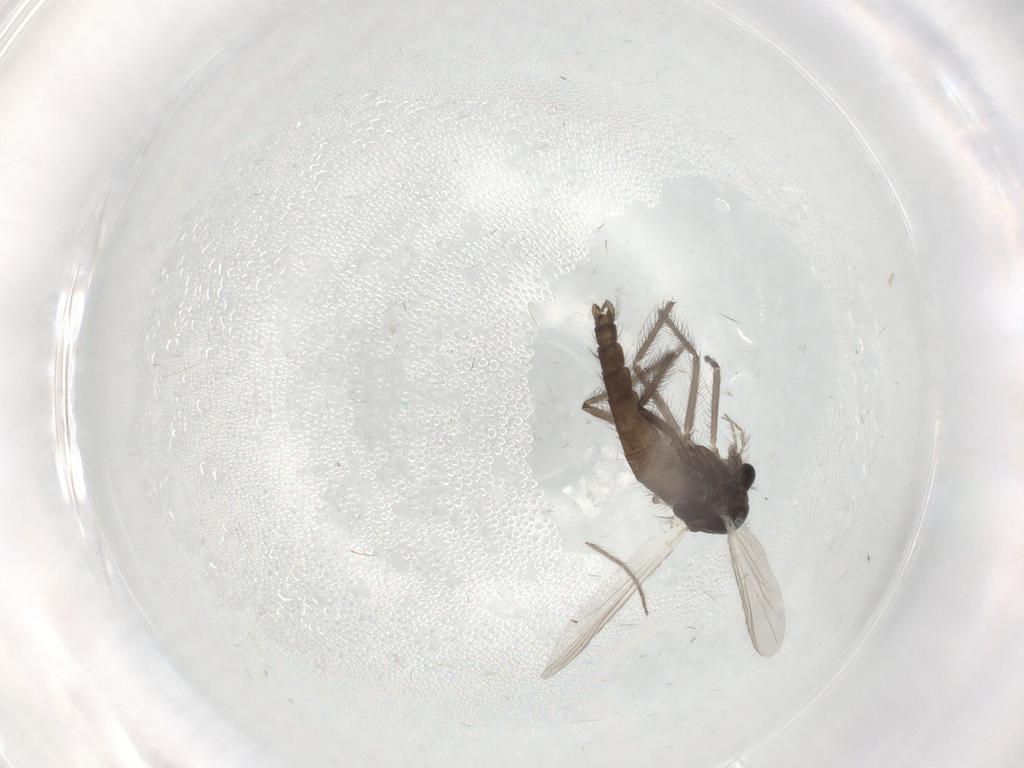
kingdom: Animalia
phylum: Arthropoda
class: Insecta
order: Diptera
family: Chironomidae
